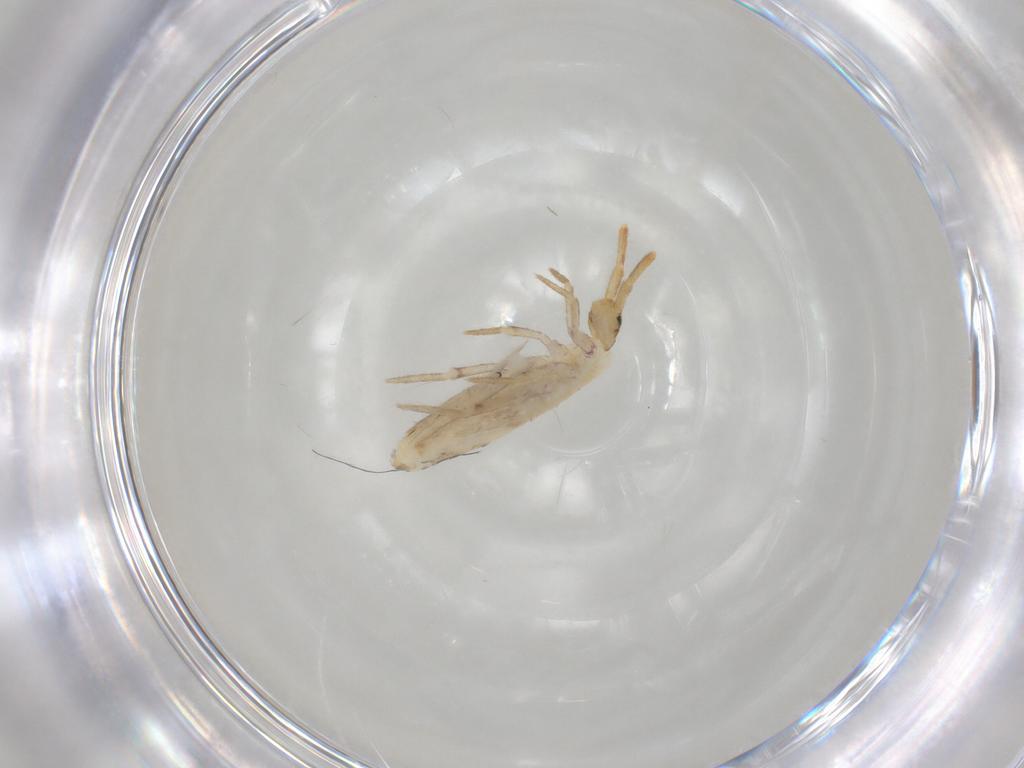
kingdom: Animalia
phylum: Arthropoda
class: Collembola
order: Poduromorpha
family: Hypogastruridae
